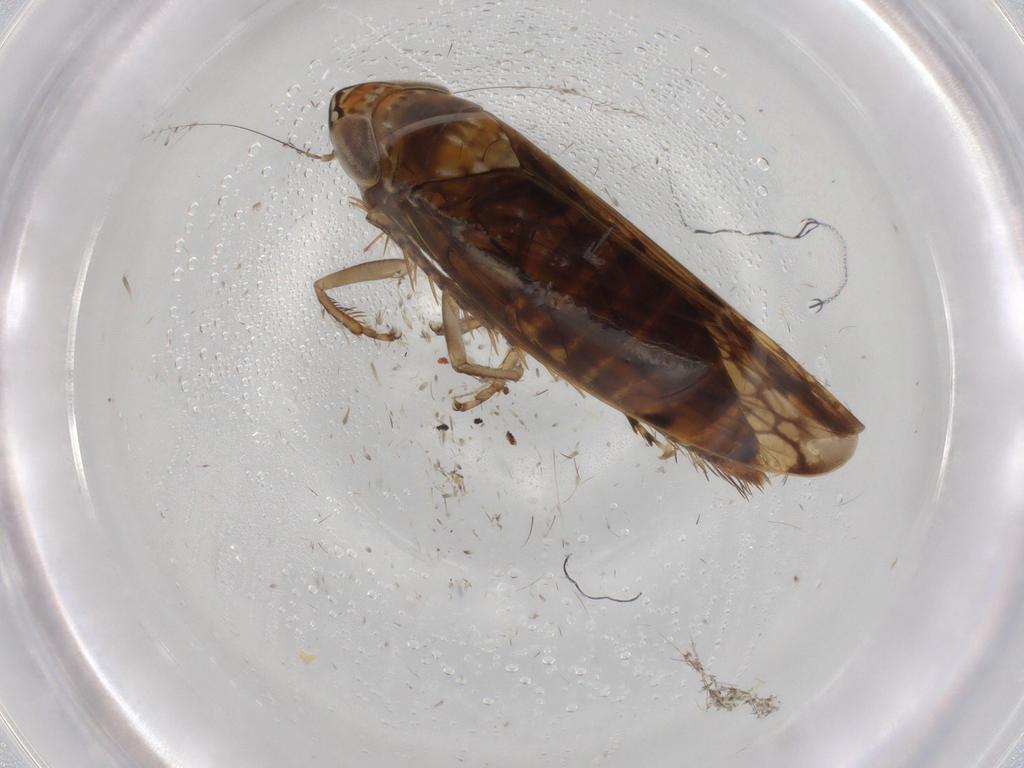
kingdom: Animalia
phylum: Arthropoda
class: Insecta
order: Hemiptera
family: Cicadellidae
